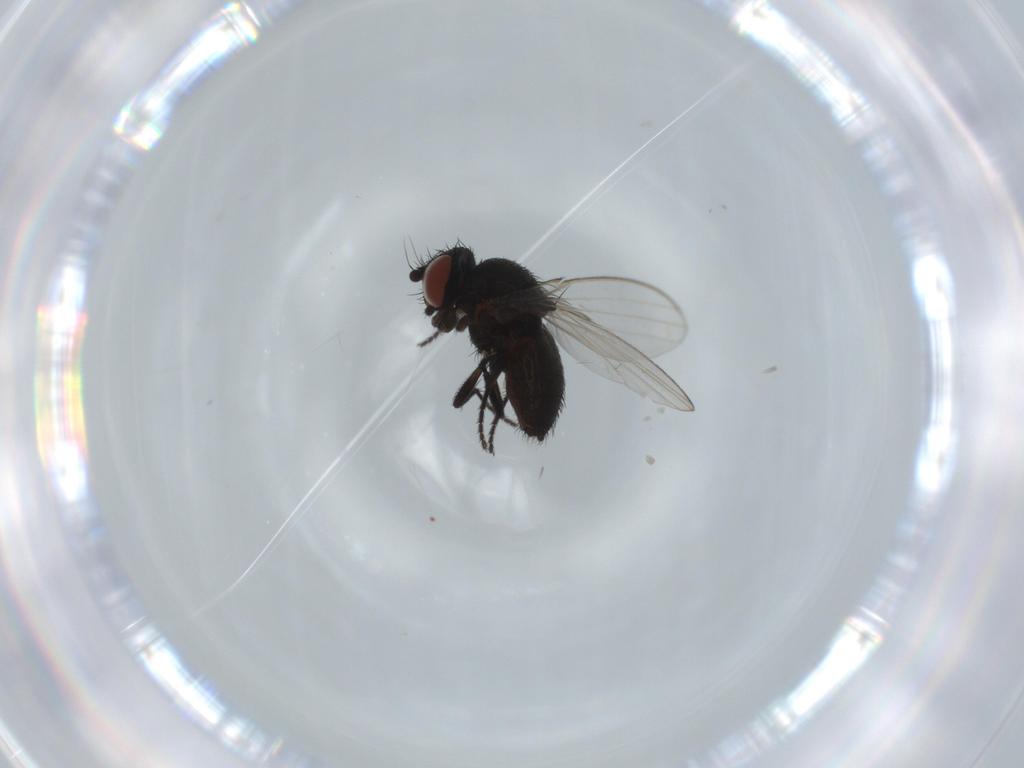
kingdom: Animalia
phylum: Arthropoda
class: Insecta
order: Diptera
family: Milichiidae
